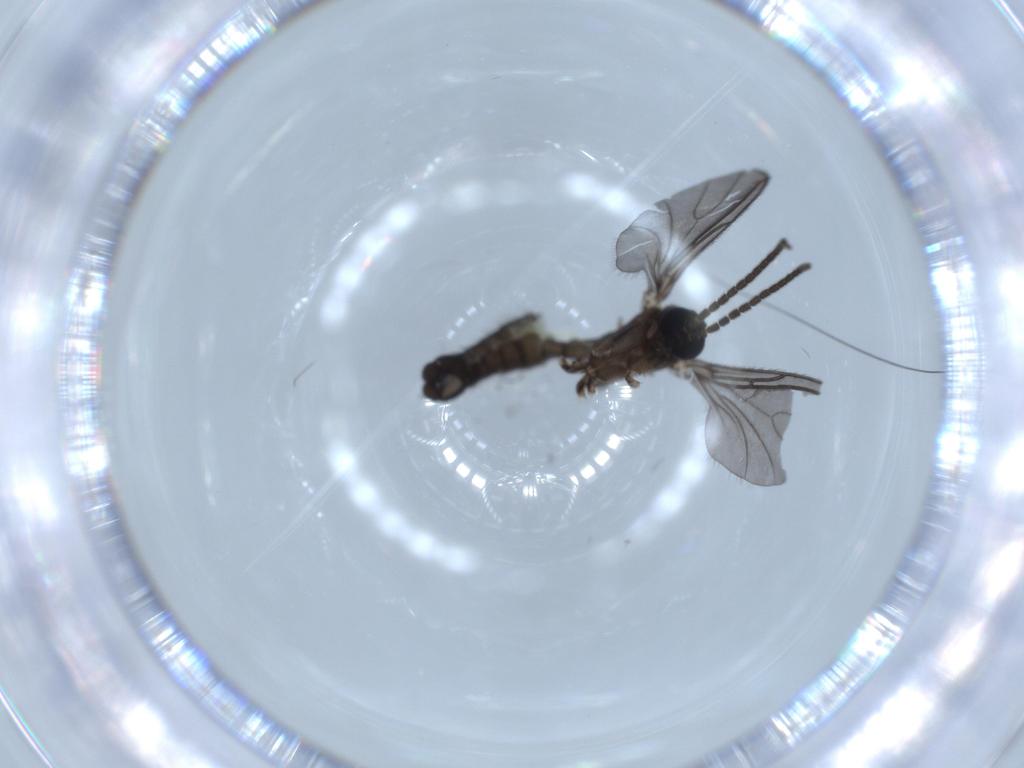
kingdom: Animalia
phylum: Arthropoda
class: Insecta
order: Diptera
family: Sciaridae
